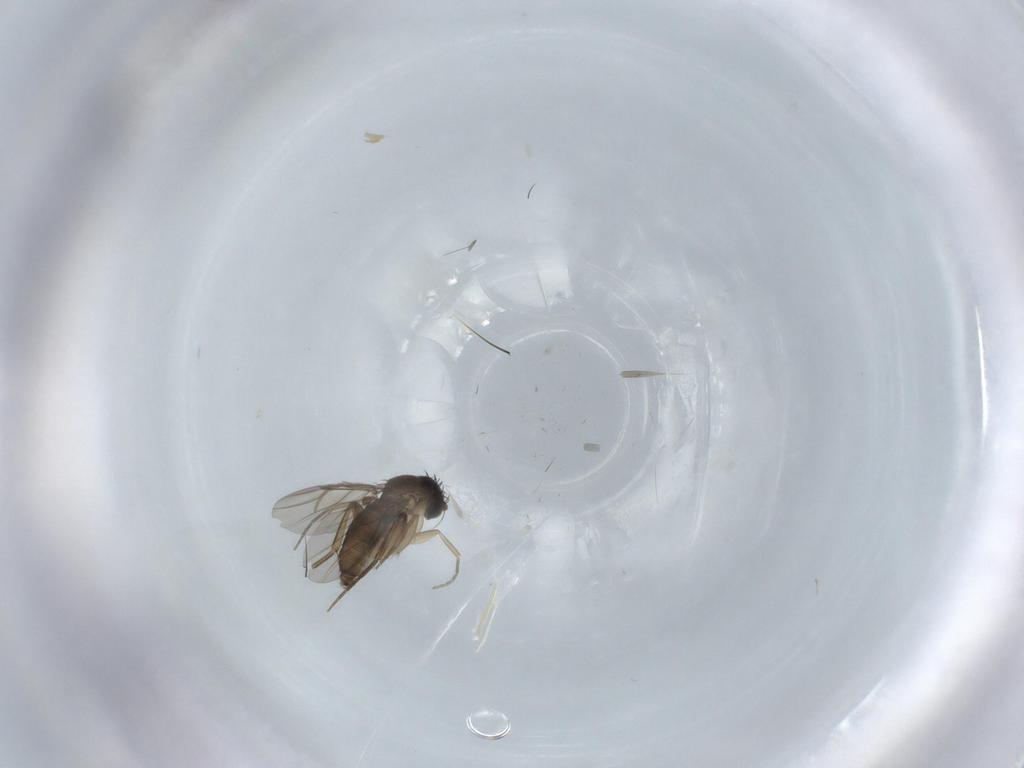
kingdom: Animalia
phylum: Arthropoda
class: Insecta
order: Diptera
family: Phoridae
